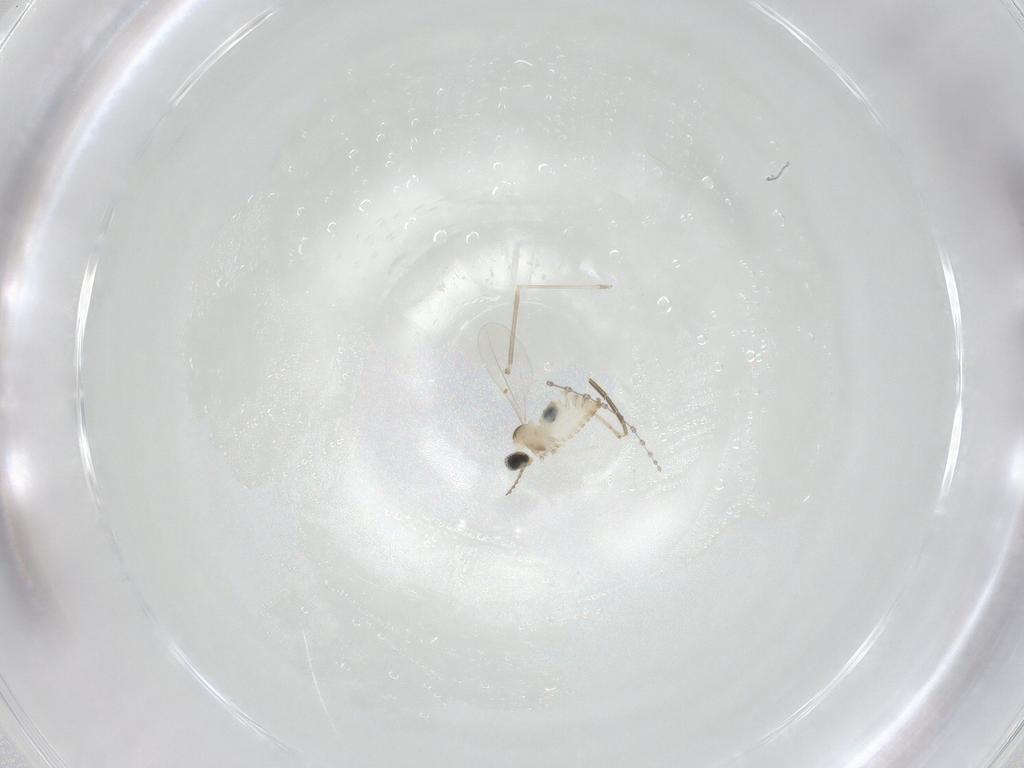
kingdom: Animalia
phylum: Arthropoda
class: Insecta
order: Diptera
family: Cecidomyiidae
